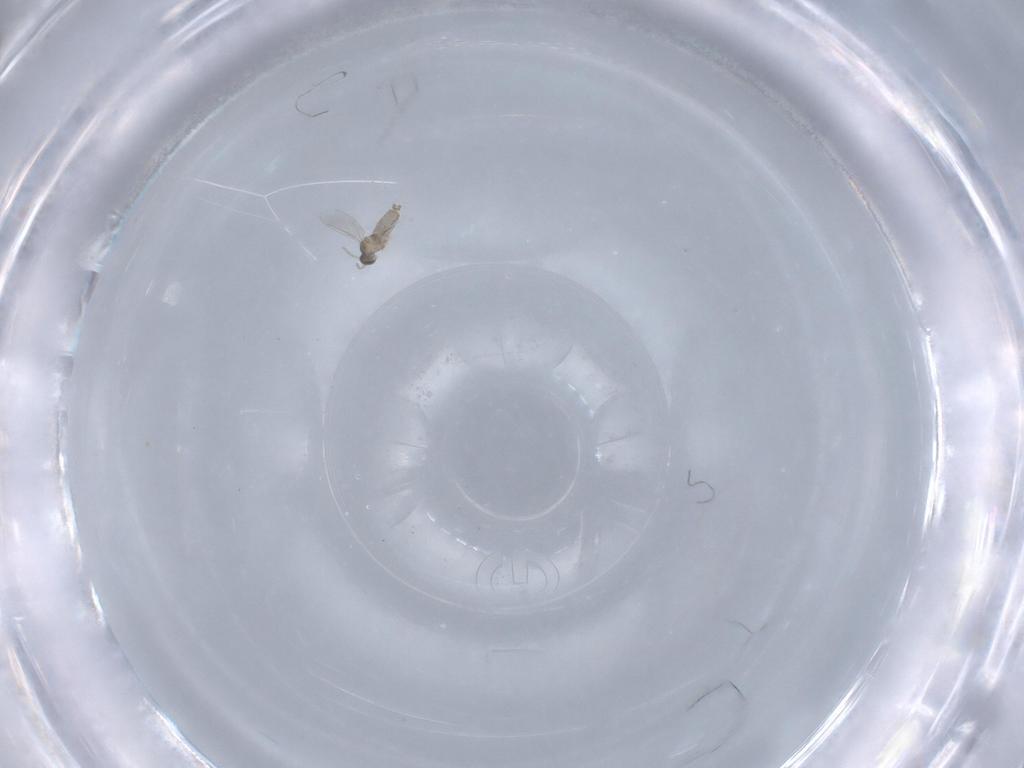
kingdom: Animalia
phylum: Arthropoda
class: Insecta
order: Diptera
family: Cecidomyiidae
